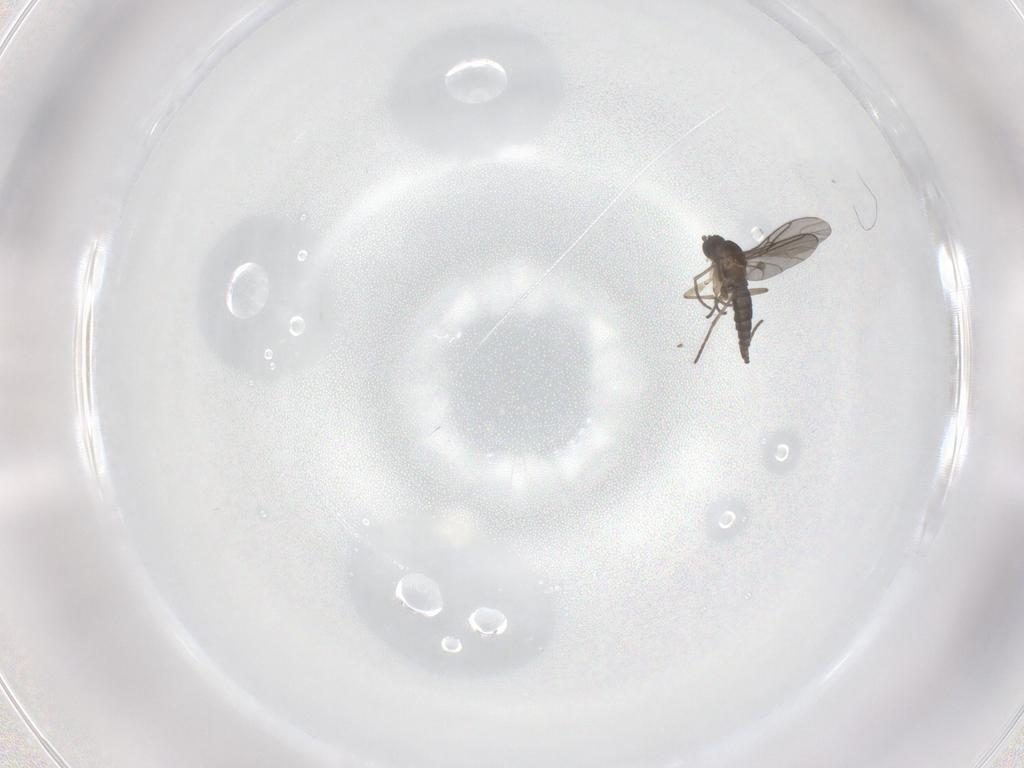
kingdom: Animalia
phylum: Arthropoda
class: Insecta
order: Diptera
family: Sciaridae
